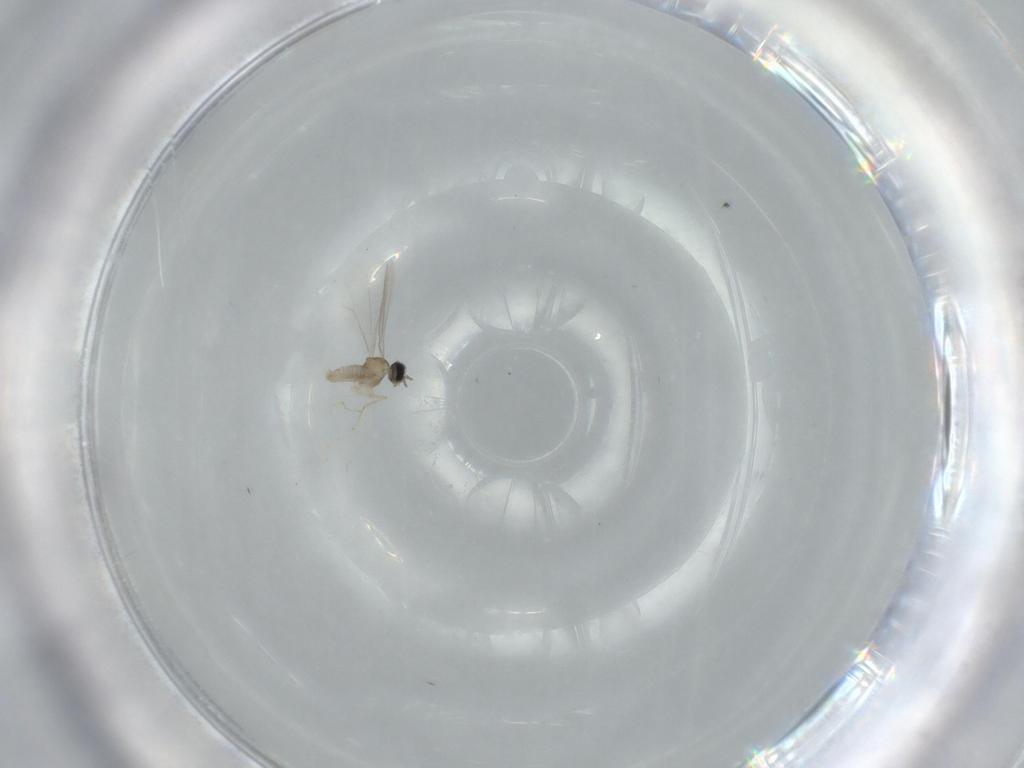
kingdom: Animalia
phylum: Arthropoda
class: Insecta
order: Diptera
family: Cecidomyiidae
